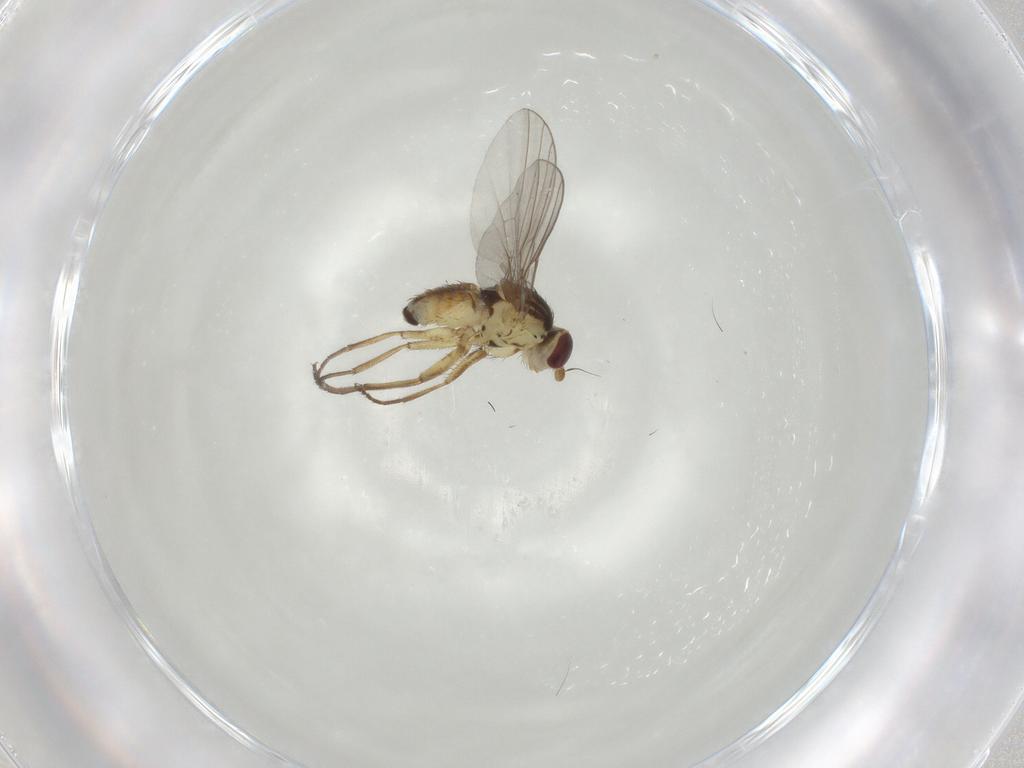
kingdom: Animalia
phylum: Arthropoda
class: Insecta
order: Diptera
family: Agromyzidae
